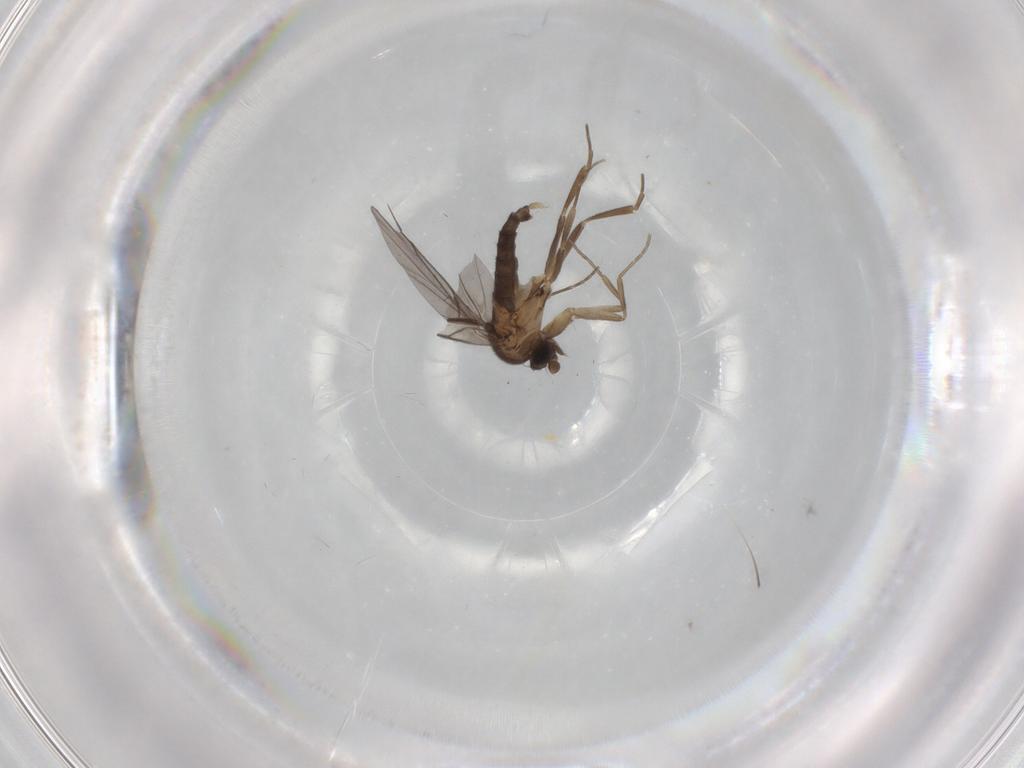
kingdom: Animalia
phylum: Arthropoda
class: Insecta
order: Diptera
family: Phoridae
